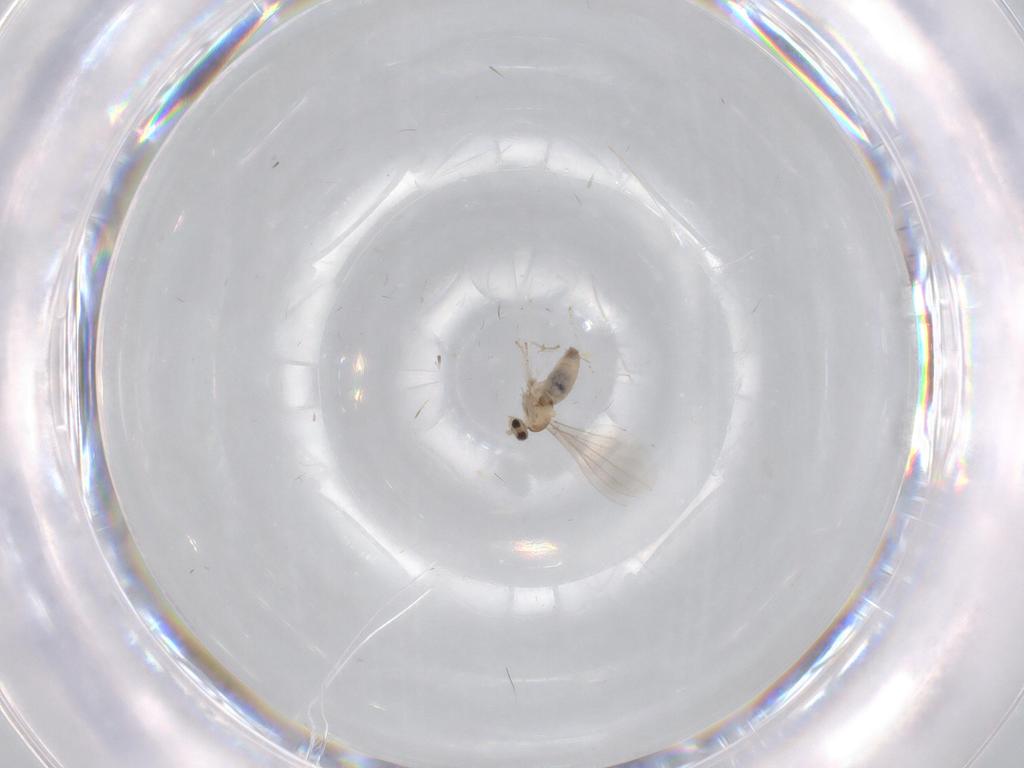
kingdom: Animalia
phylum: Arthropoda
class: Insecta
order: Diptera
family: Cecidomyiidae
